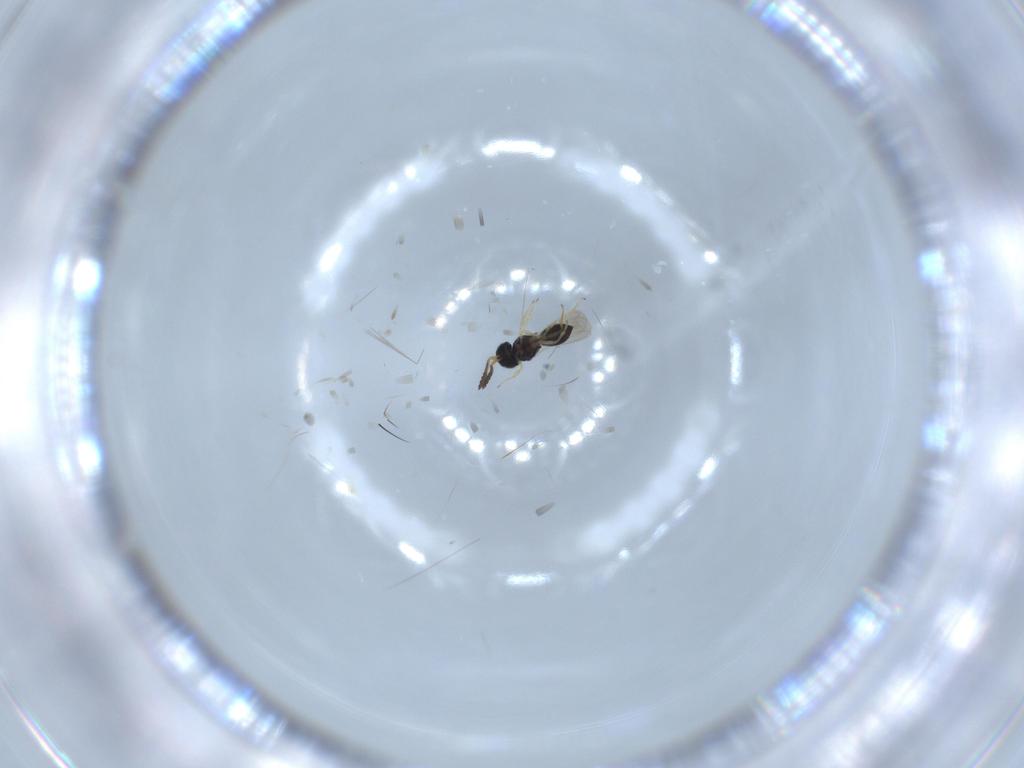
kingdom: Animalia
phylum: Arthropoda
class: Insecta
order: Hymenoptera
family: Scelionidae
